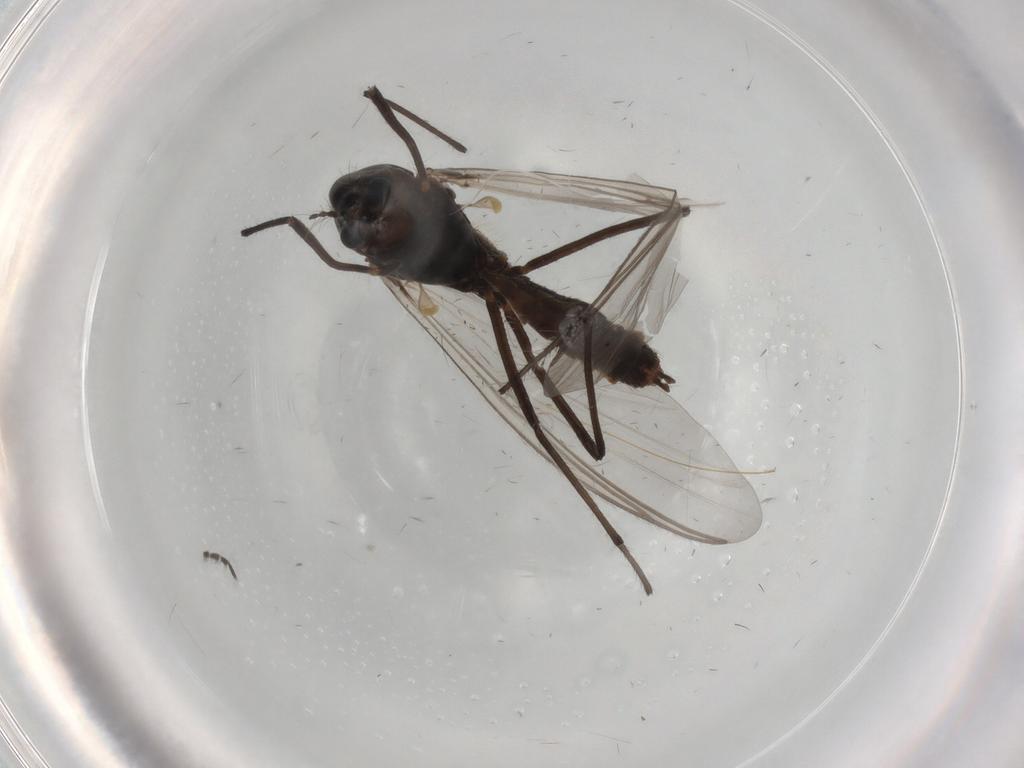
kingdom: Animalia
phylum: Arthropoda
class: Insecta
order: Diptera
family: Chironomidae
